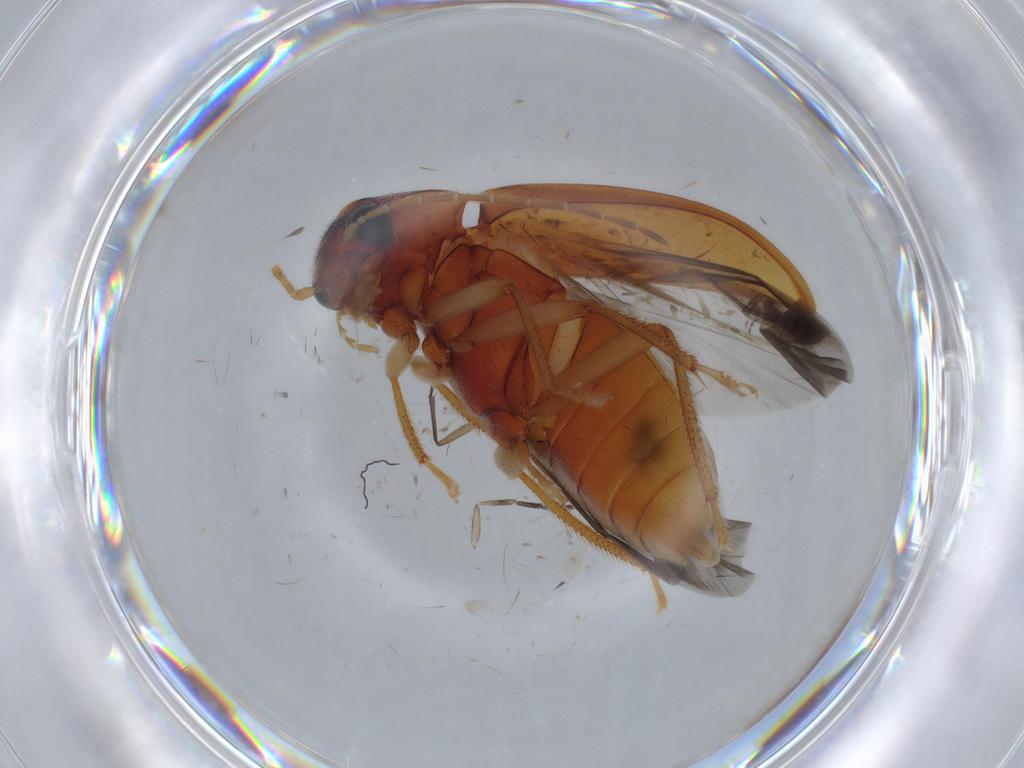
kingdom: Animalia
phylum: Arthropoda
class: Insecta
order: Coleoptera
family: Ptilodactylidae
